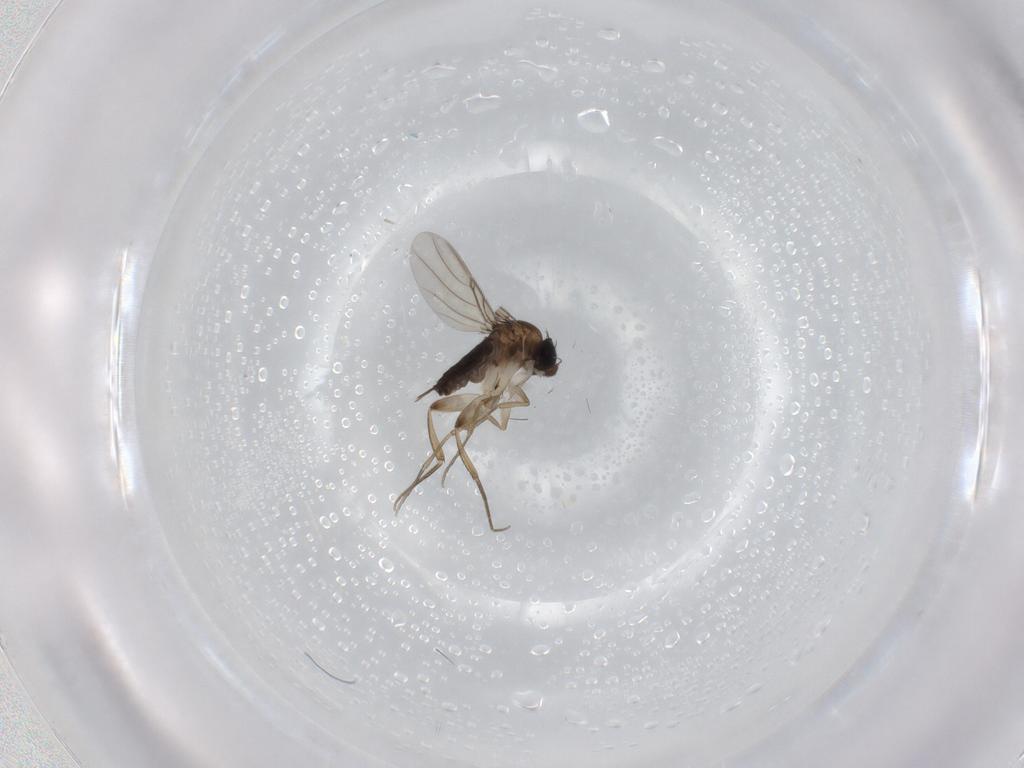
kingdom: Animalia
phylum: Arthropoda
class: Insecta
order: Diptera
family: Phoridae
